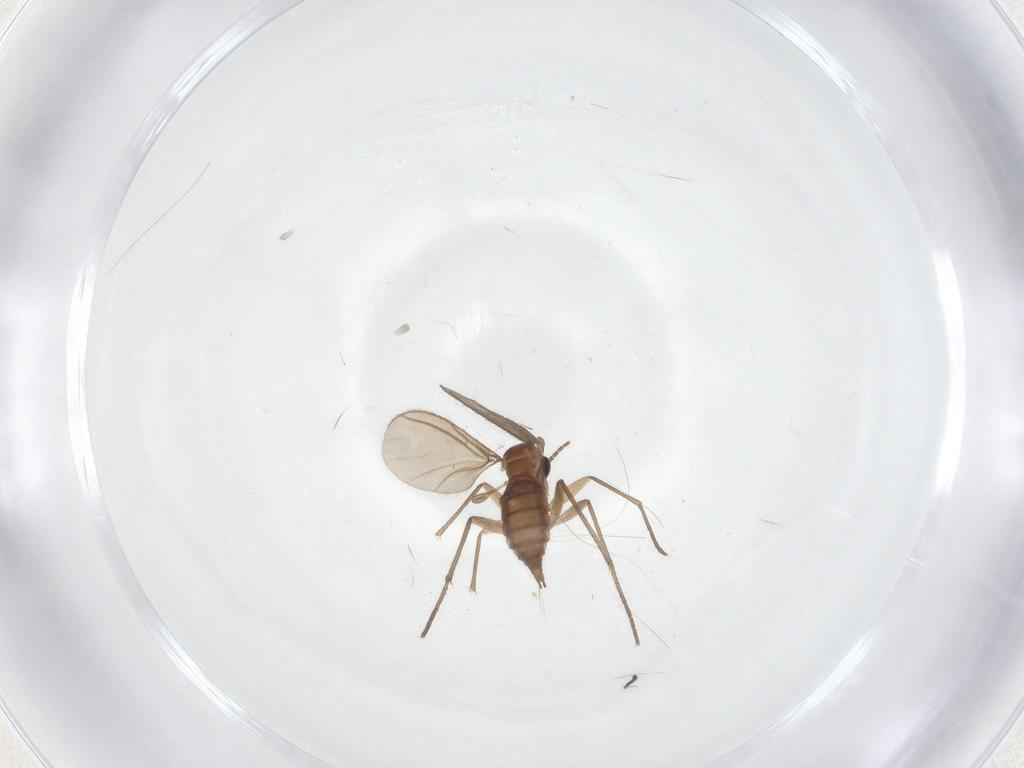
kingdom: Animalia
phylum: Arthropoda
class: Insecta
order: Diptera
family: Sciaridae
